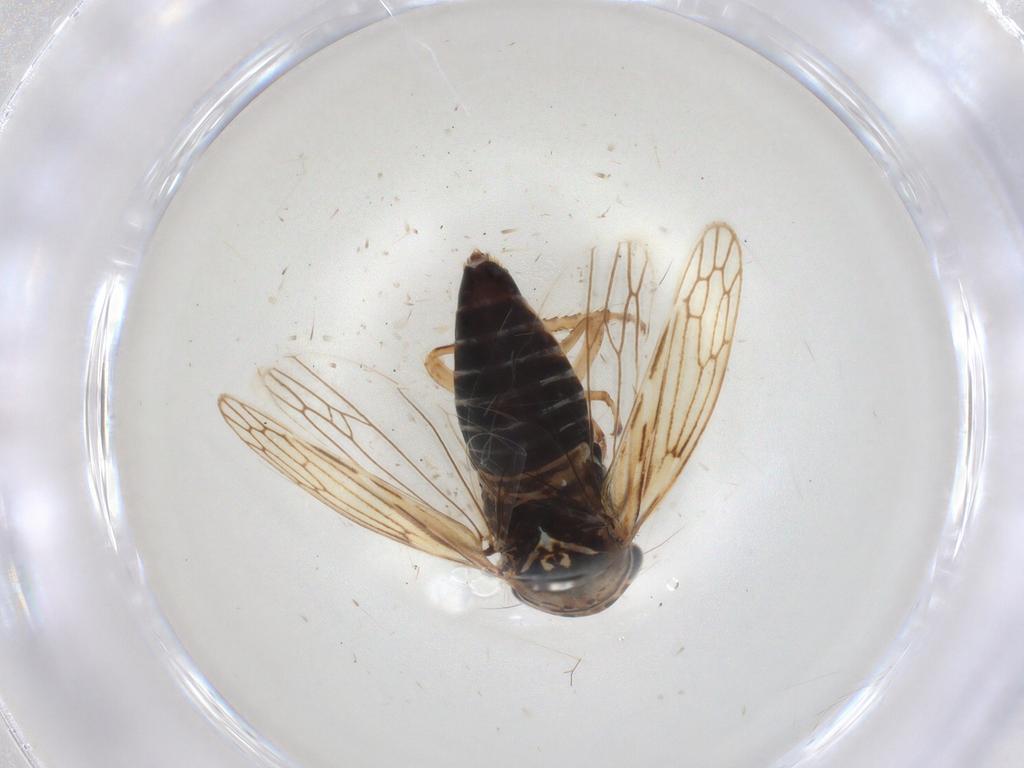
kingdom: Animalia
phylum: Arthropoda
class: Insecta
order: Hemiptera
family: Cicadellidae
